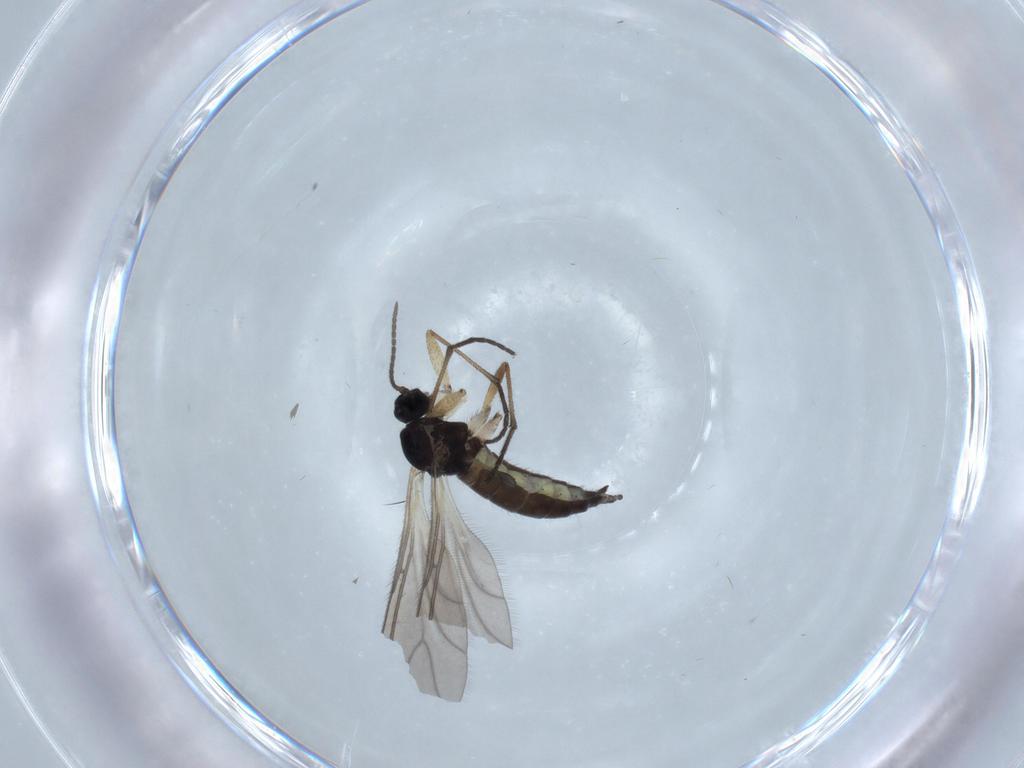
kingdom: Animalia
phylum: Arthropoda
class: Insecta
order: Diptera
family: Sciaridae
